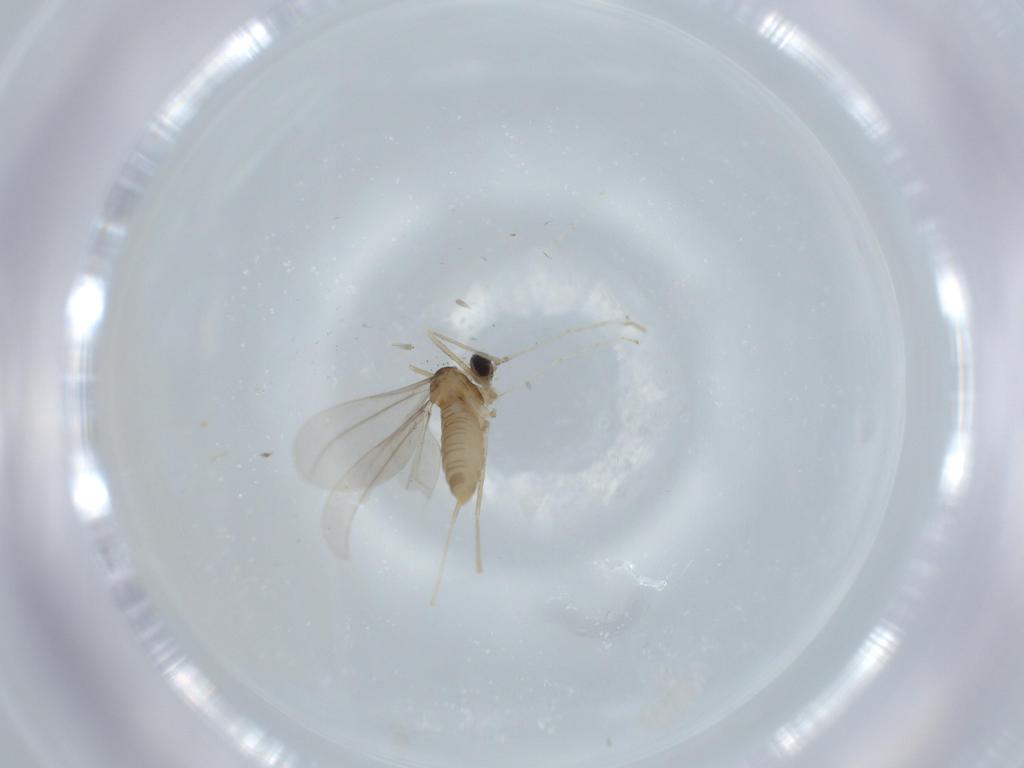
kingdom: Animalia
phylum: Arthropoda
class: Insecta
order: Diptera
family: Cecidomyiidae
